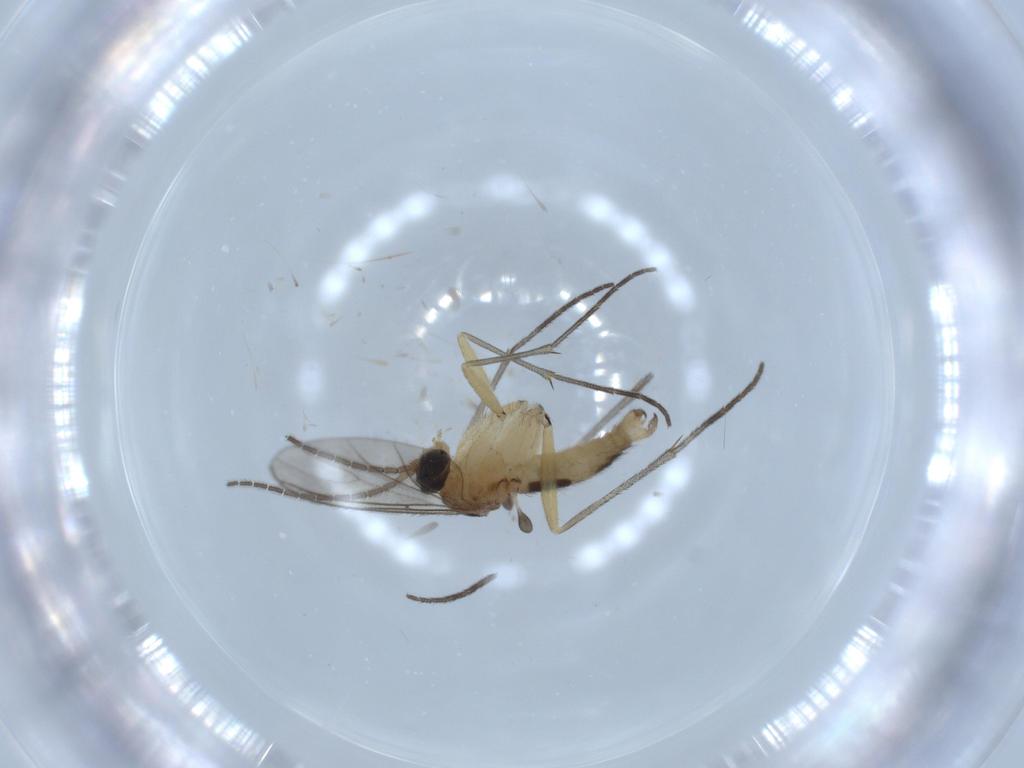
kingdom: Animalia
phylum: Arthropoda
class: Insecta
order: Diptera
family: Sciaridae
